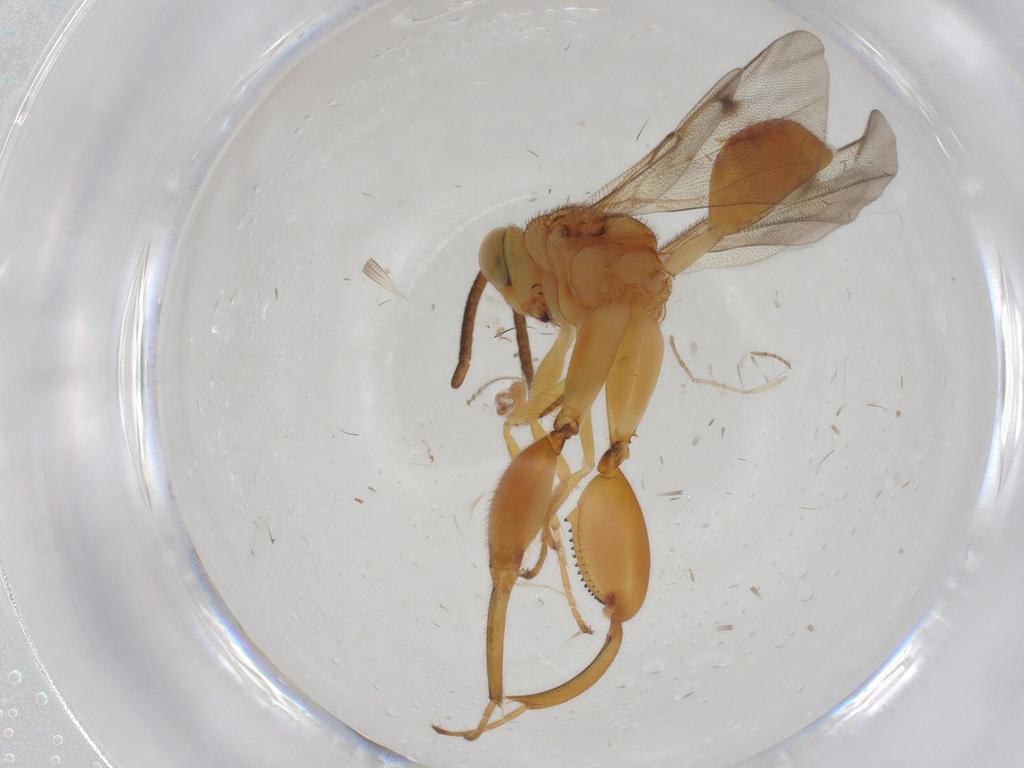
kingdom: Animalia
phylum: Arthropoda
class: Insecta
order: Hymenoptera
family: Chalcididae
